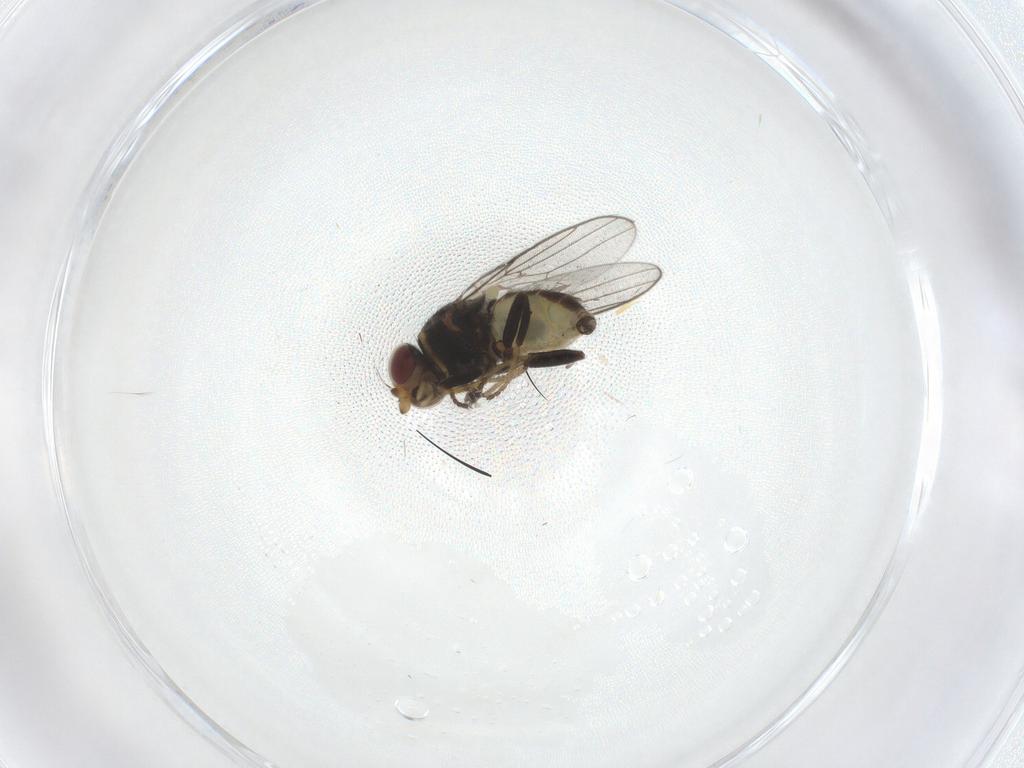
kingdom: Animalia
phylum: Arthropoda
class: Insecta
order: Diptera
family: Chloropidae
